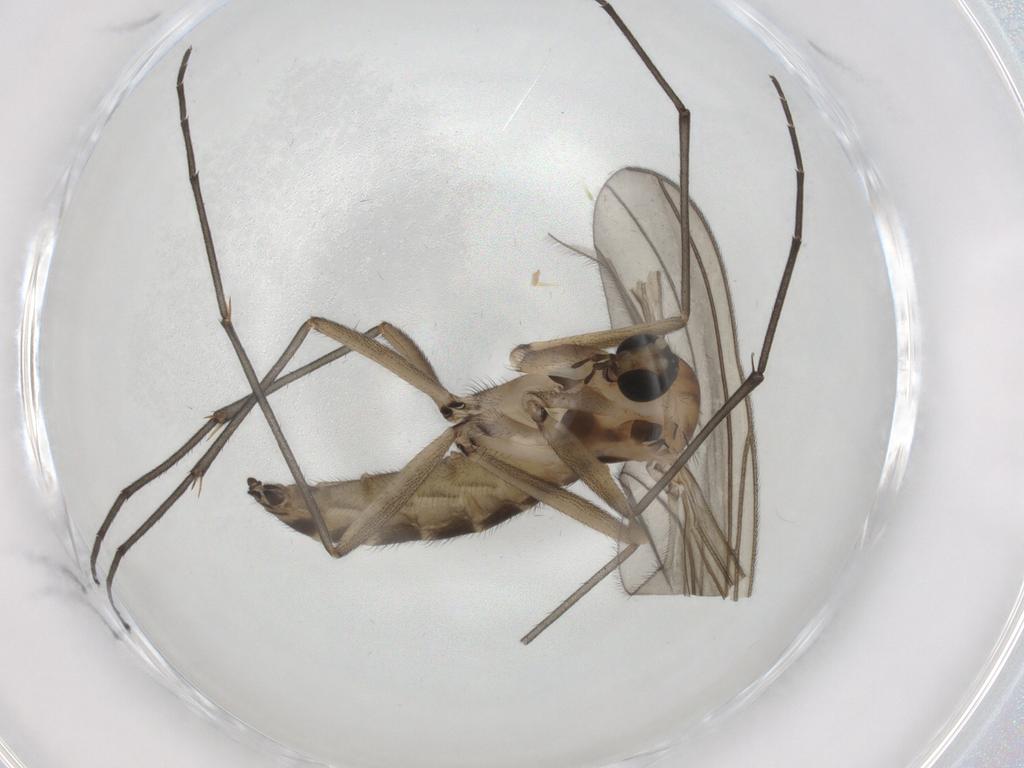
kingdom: Animalia
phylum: Arthropoda
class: Insecta
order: Diptera
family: Sciaridae
